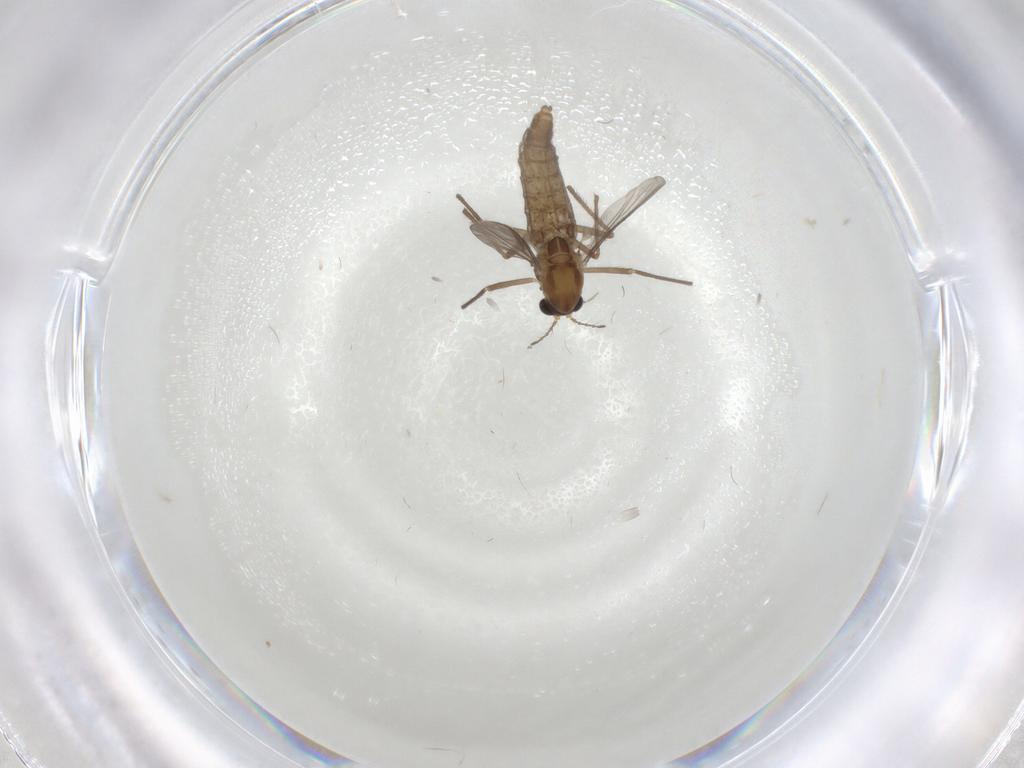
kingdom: Animalia
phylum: Arthropoda
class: Insecta
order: Diptera
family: Chironomidae
